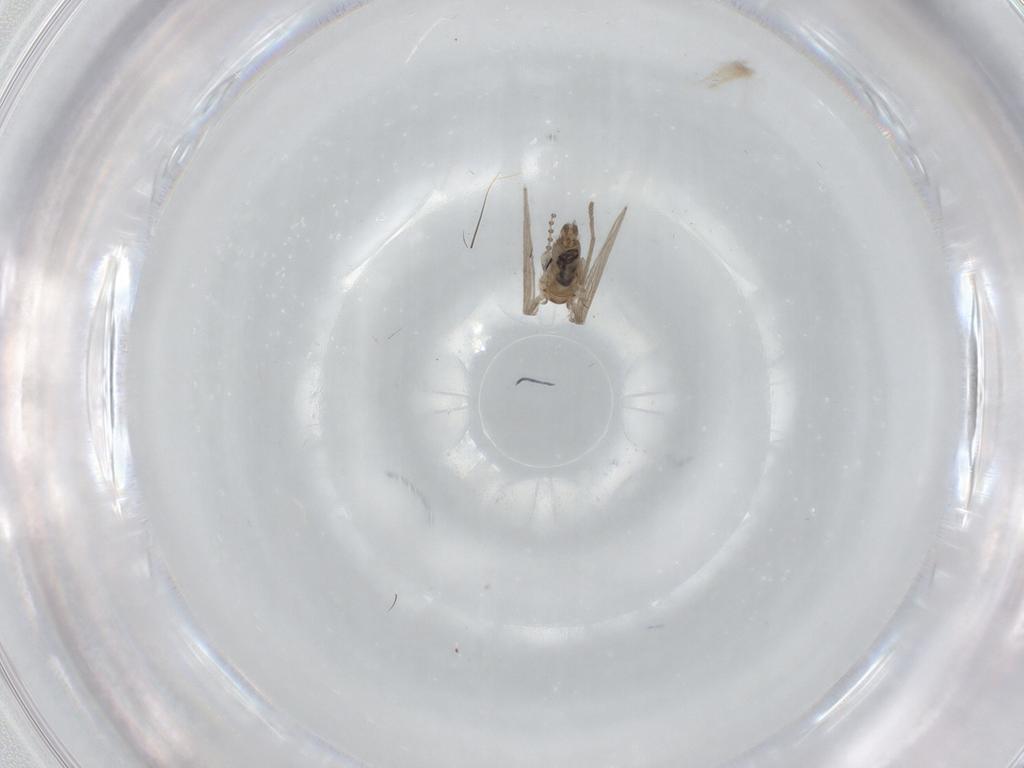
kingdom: Animalia
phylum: Arthropoda
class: Insecta
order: Diptera
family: Psychodidae
